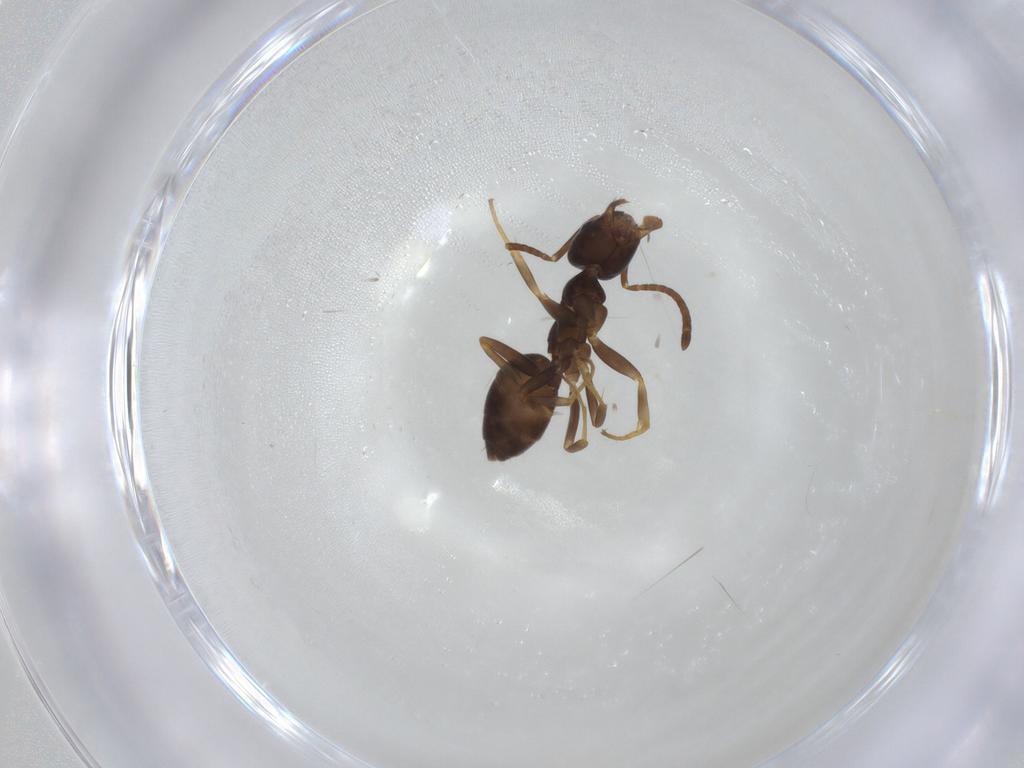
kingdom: Animalia
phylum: Arthropoda
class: Insecta
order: Hymenoptera
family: Formicidae
